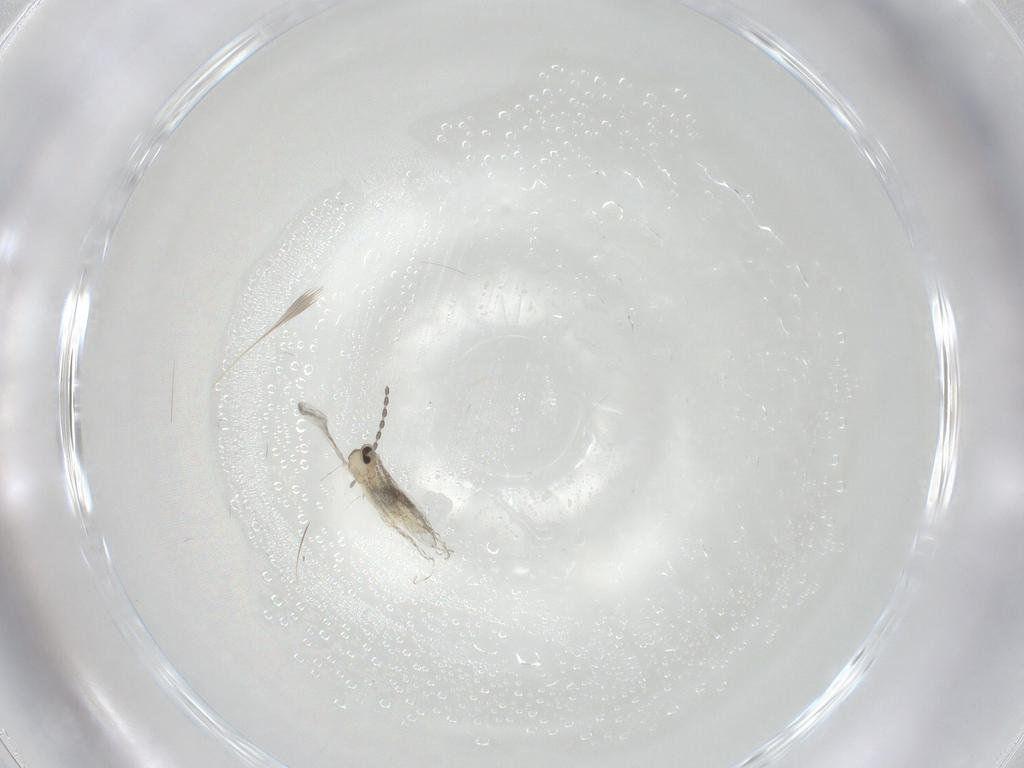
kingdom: Animalia
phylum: Arthropoda
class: Insecta
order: Diptera
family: Cecidomyiidae
